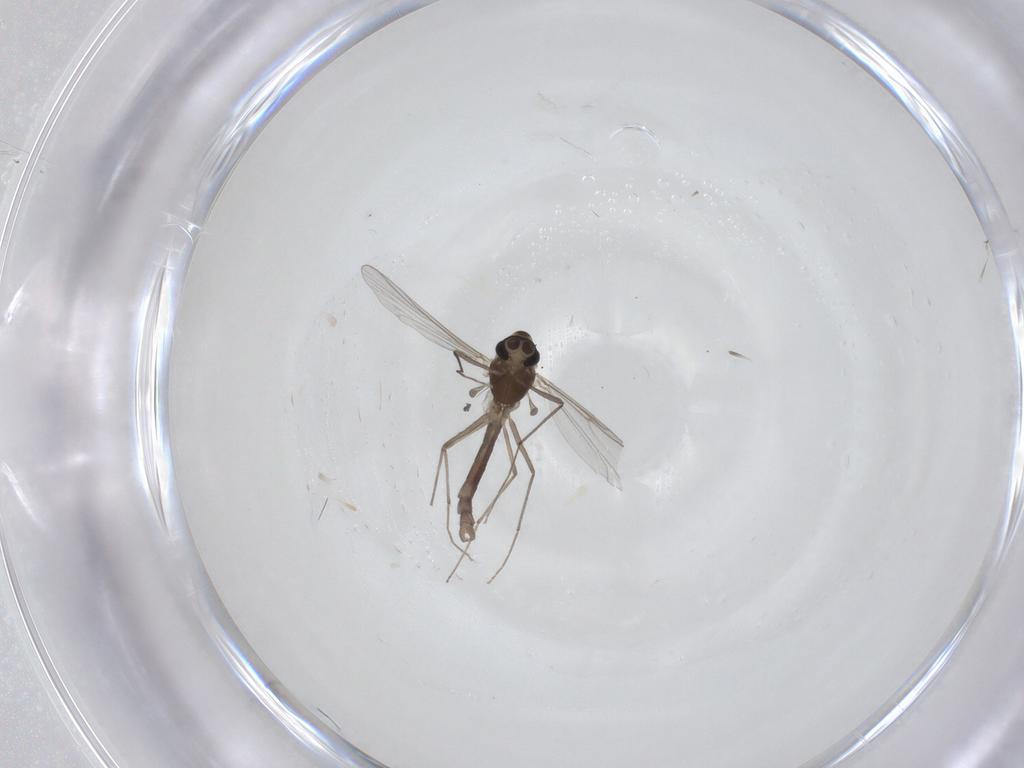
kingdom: Animalia
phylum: Arthropoda
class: Insecta
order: Diptera
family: Chironomidae
